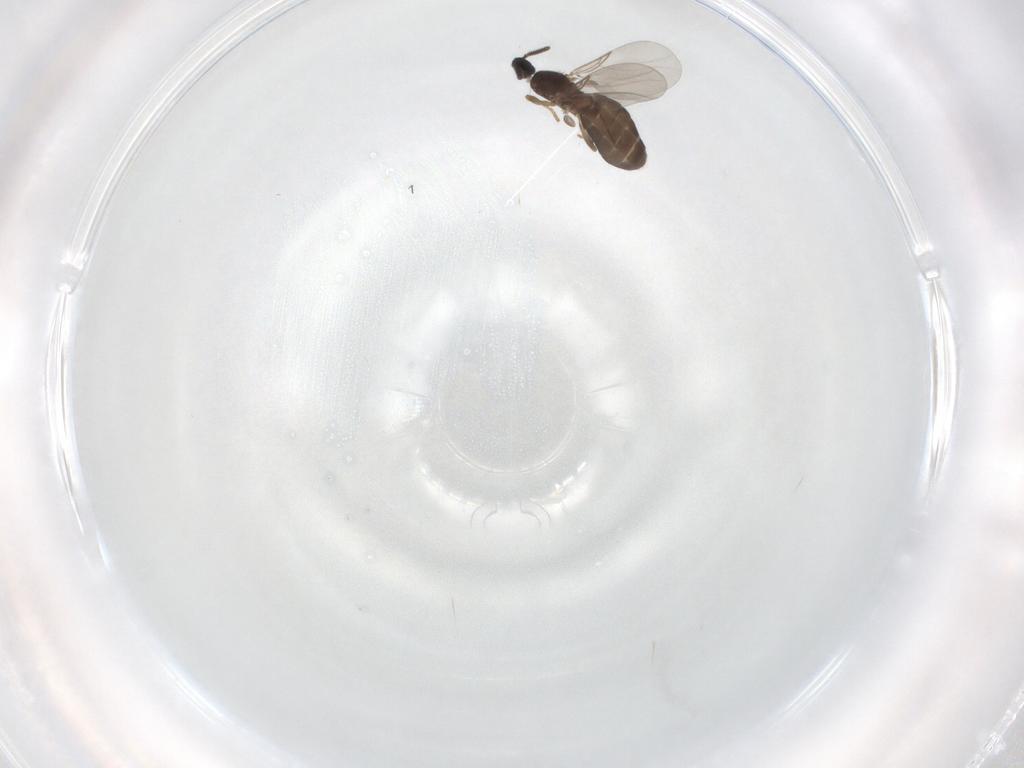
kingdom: Animalia
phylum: Arthropoda
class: Insecta
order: Diptera
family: Scatopsidae
